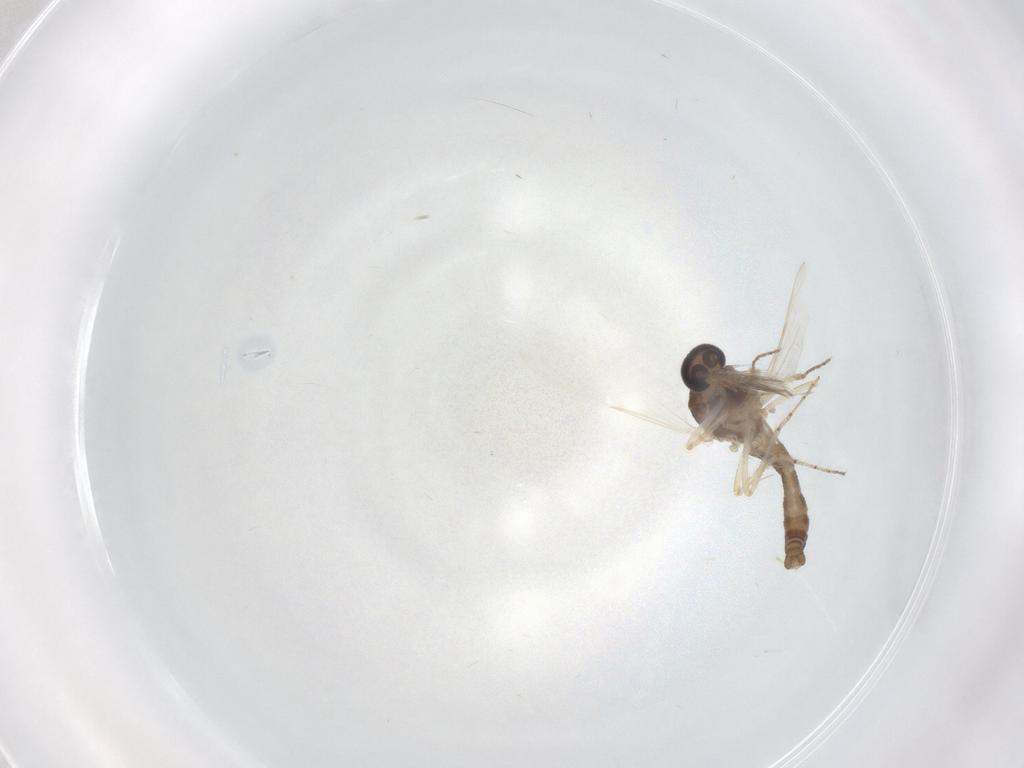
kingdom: Animalia
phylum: Arthropoda
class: Insecta
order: Diptera
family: Ceratopogonidae
